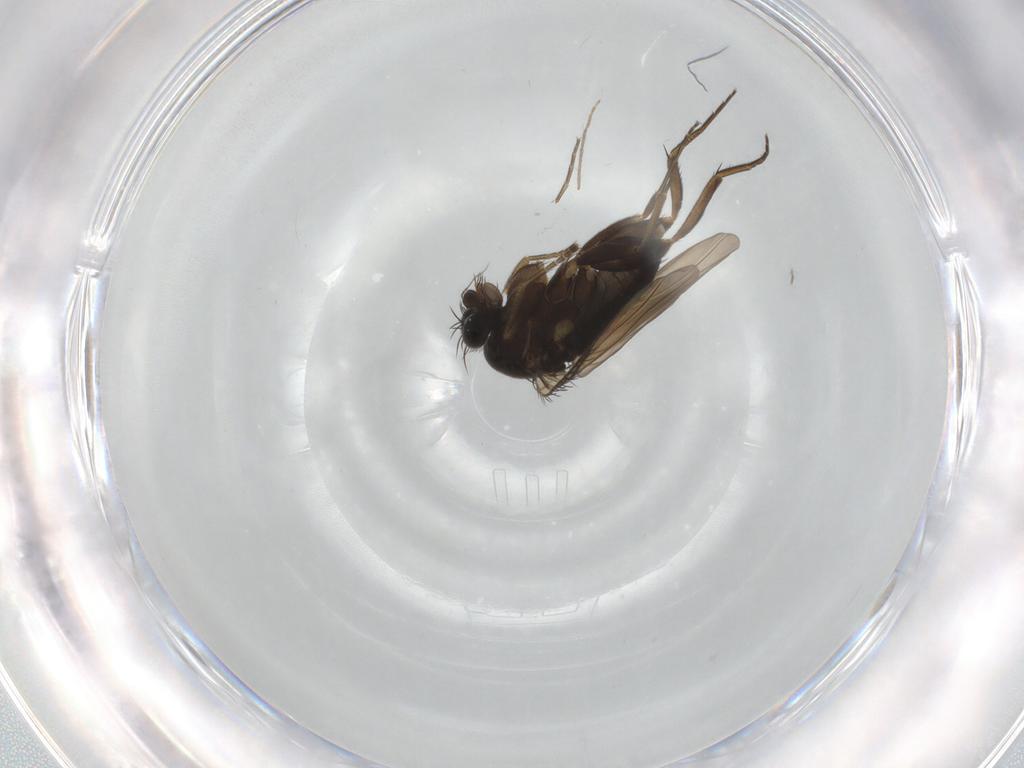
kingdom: Animalia
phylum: Arthropoda
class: Insecta
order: Diptera
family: Phoridae
